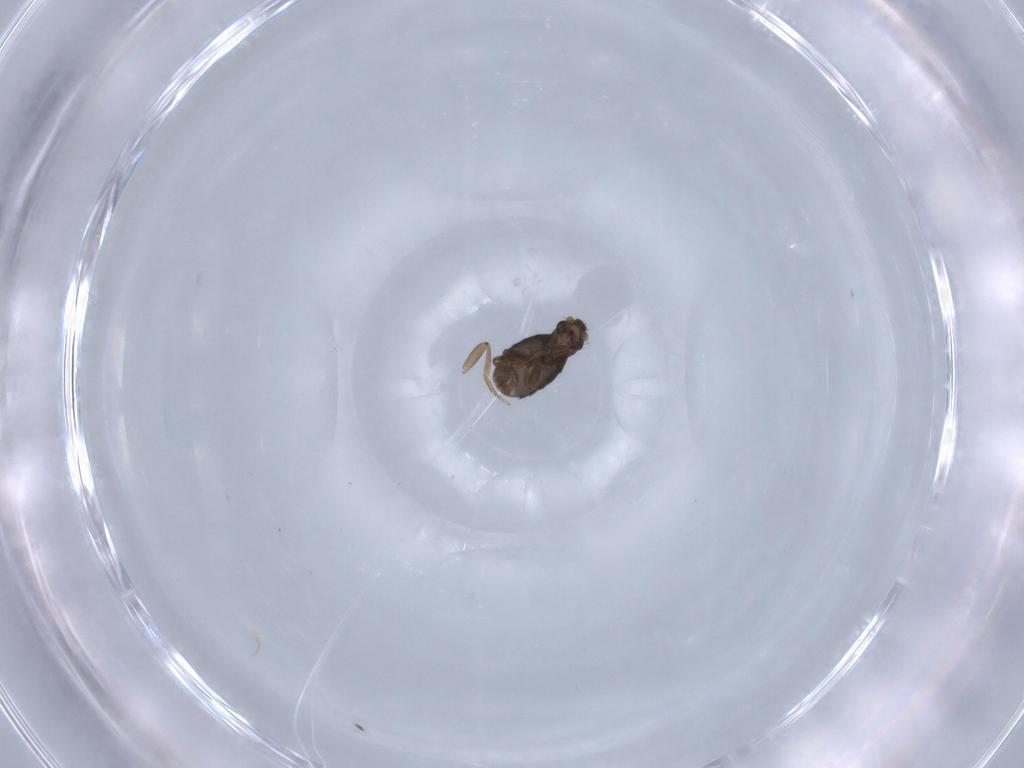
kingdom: Animalia
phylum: Arthropoda
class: Insecta
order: Diptera
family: Phoridae
